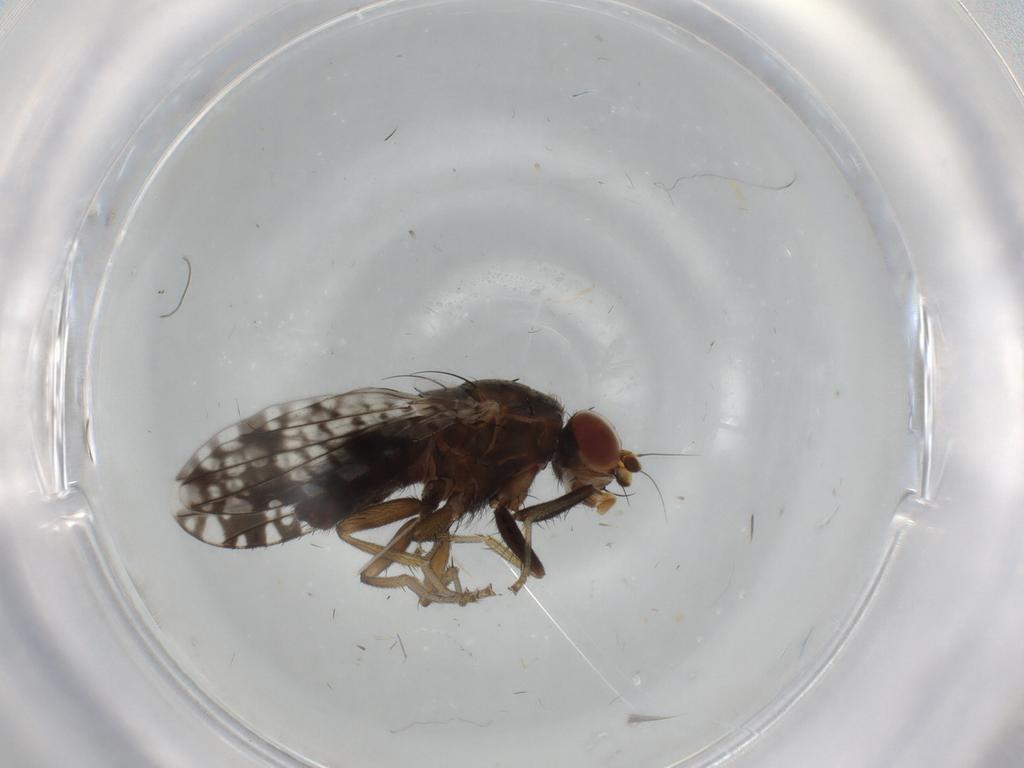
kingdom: Animalia
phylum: Arthropoda
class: Insecta
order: Diptera
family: Tephritidae
